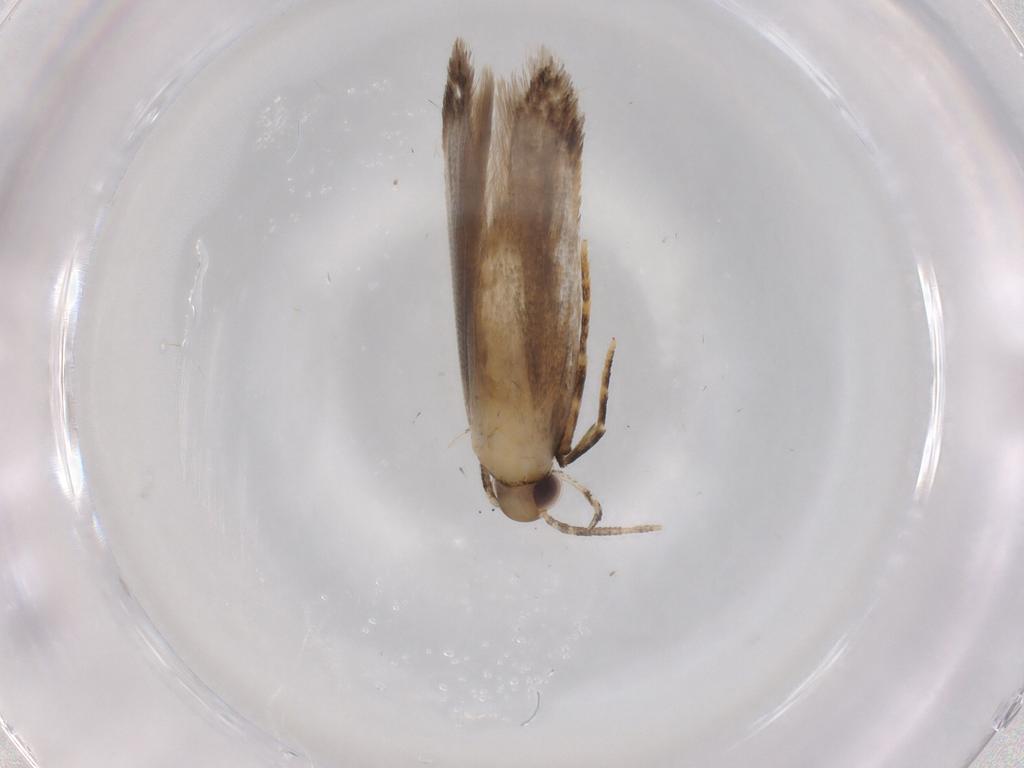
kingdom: Animalia
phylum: Arthropoda
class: Insecta
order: Lepidoptera
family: Autostichidae
